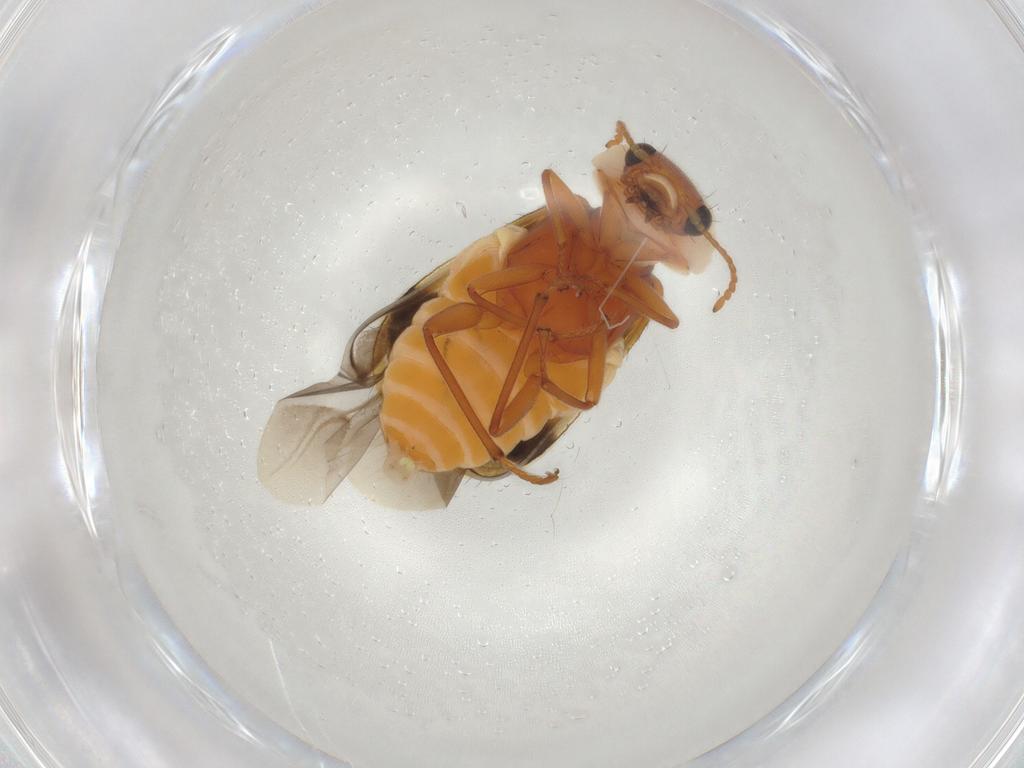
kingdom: Animalia
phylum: Arthropoda
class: Insecta
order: Coleoptera
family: Melyridae
